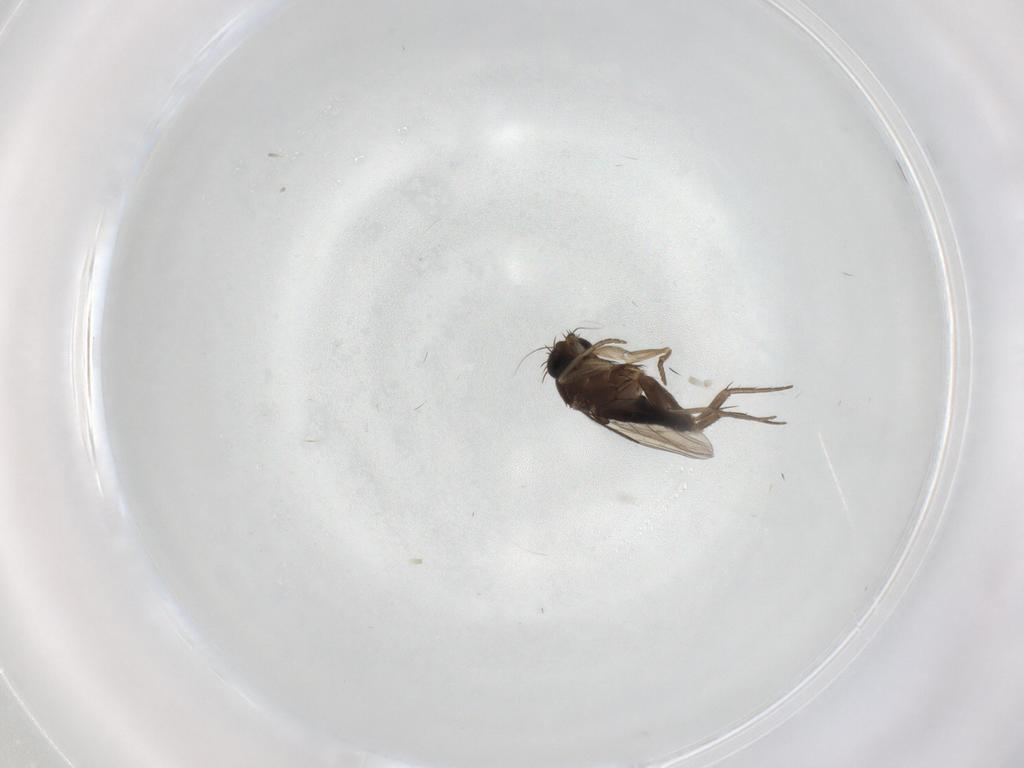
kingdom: Animalia
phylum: Arthropoda
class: Insecta
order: Diptera
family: Phoridae
